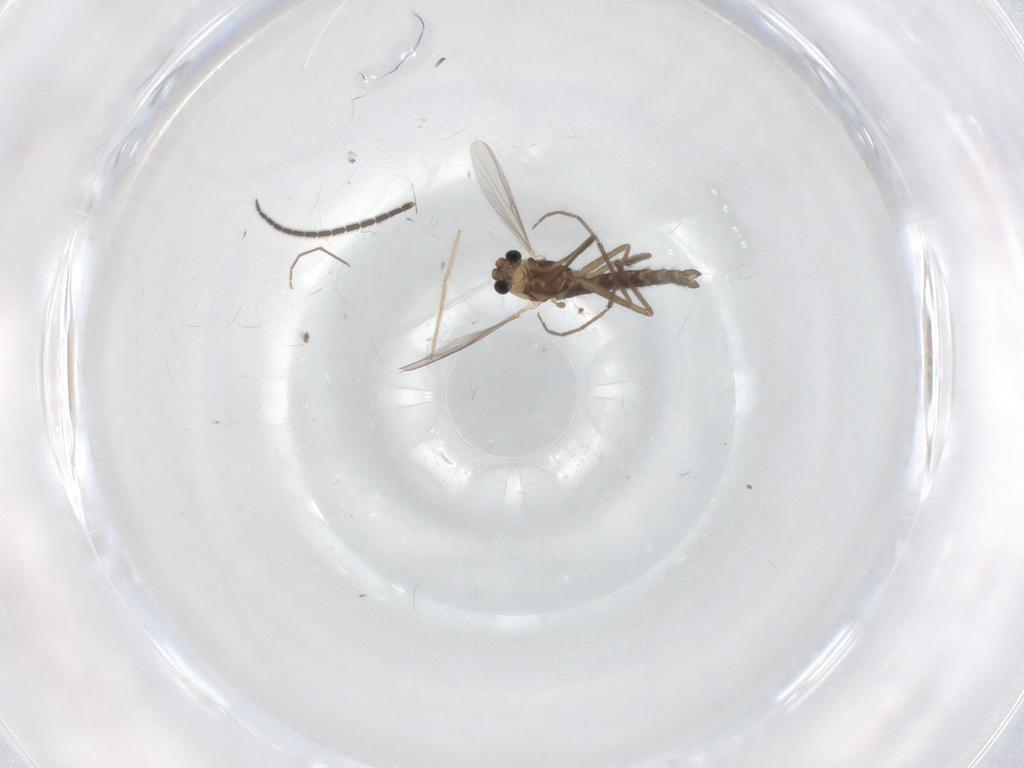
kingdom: Animalia
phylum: Arthropoda
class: Insecta
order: Diptera
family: Chironomidae
